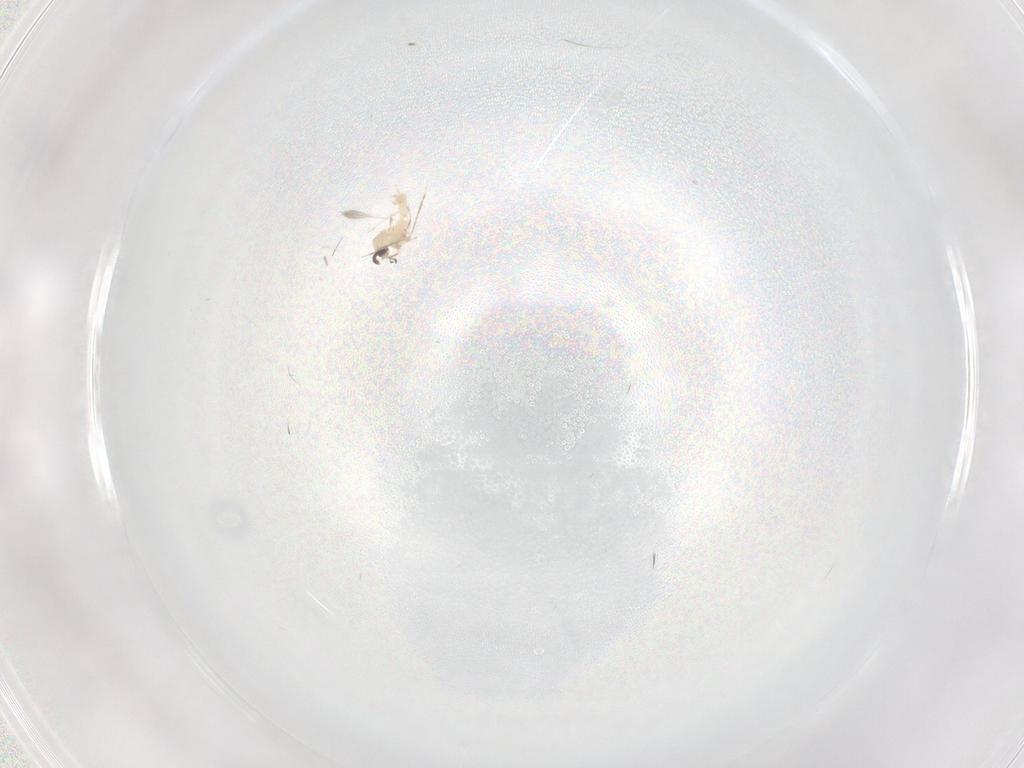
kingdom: Animalia
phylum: Arthropoda
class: Insecta
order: Diptera
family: Cecidomyiidae
